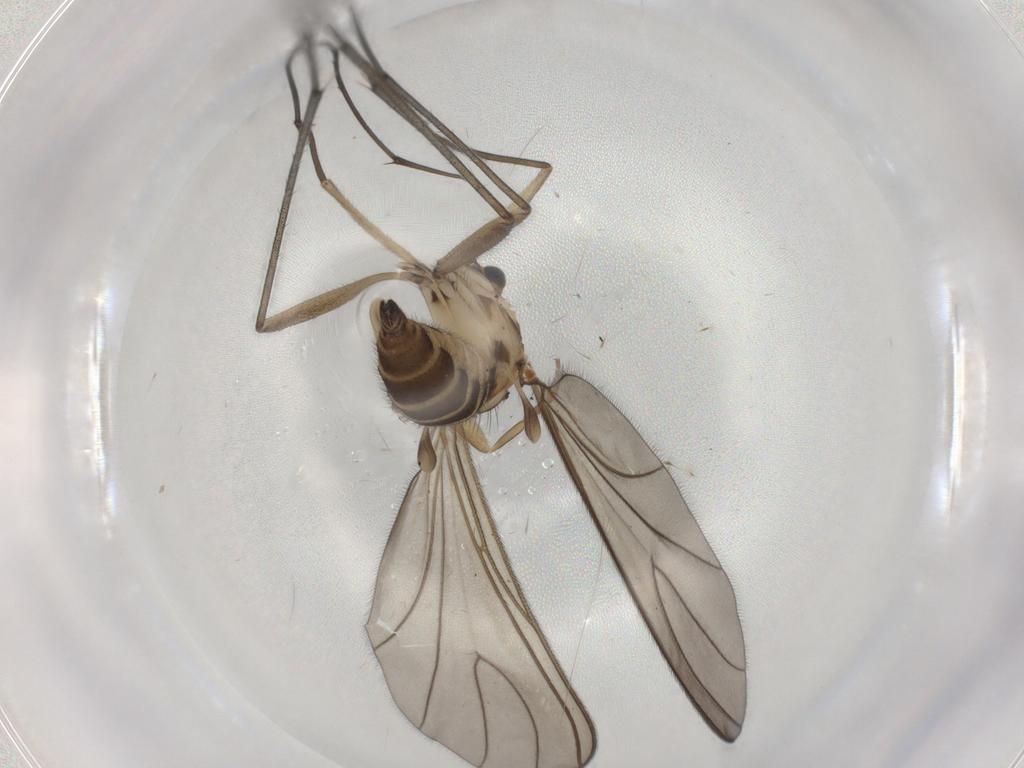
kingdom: Animalia
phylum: Arthropoda
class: Insecta
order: Diptera
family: Sciaridae
